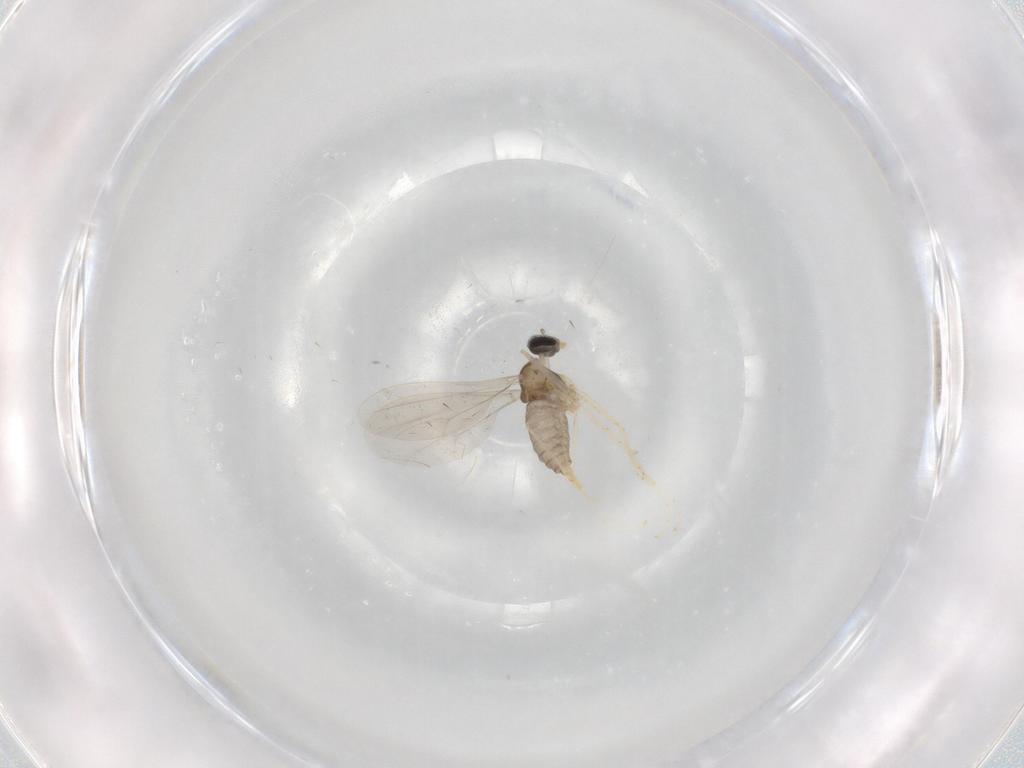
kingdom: Animalia
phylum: Arthropoda
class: Insecta
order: Diptera
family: Cecidomyiidae
